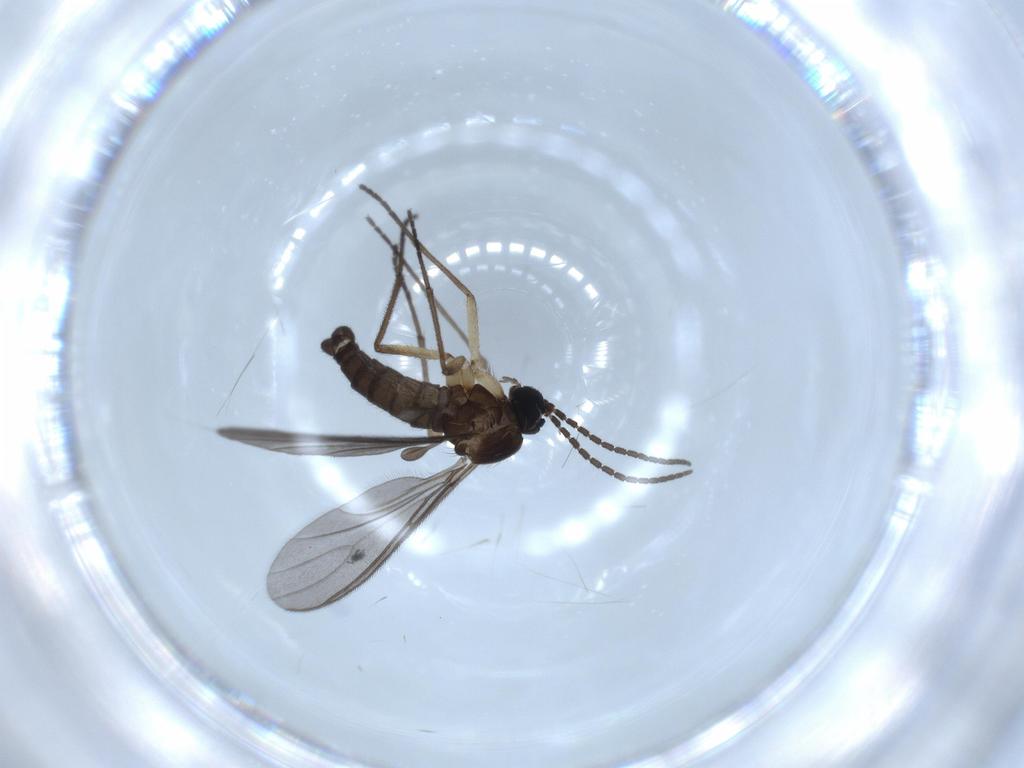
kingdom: Animalia
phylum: Arthropoda
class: Insecta
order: Diptera
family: Sciaridae
